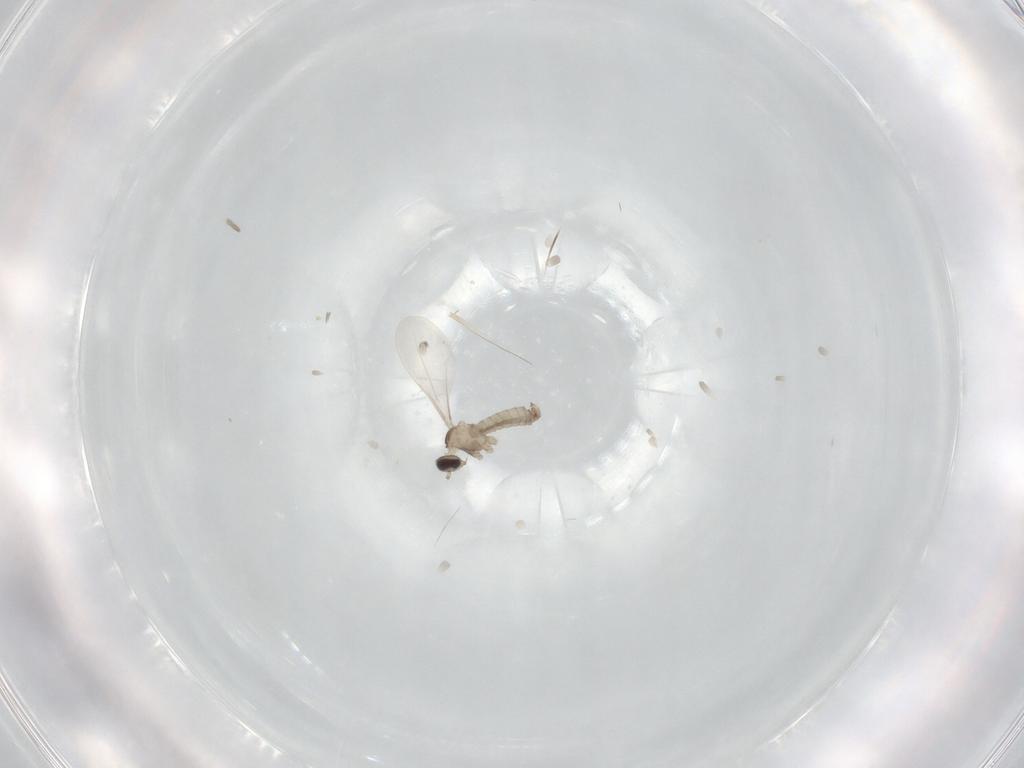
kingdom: Animalia
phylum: Arthropoda
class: Insecta
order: Diptera
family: Cecidomyiidae
